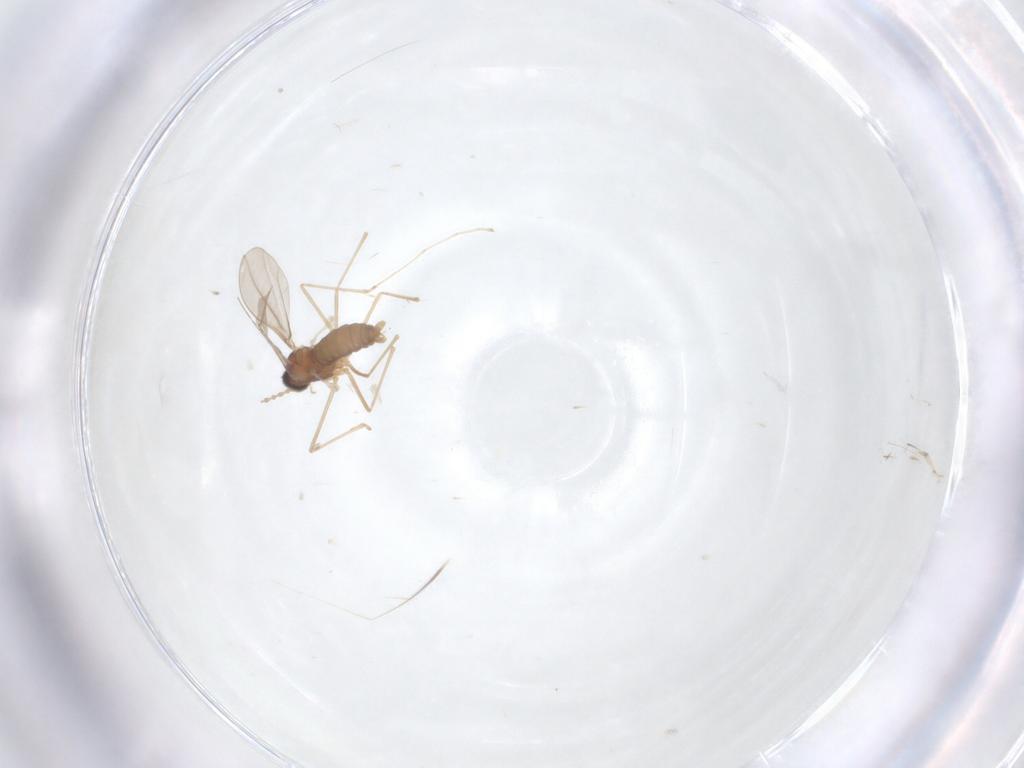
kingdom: Animalia
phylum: Arthropoda
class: Insecta
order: Diptera
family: Cecidomyiidae
